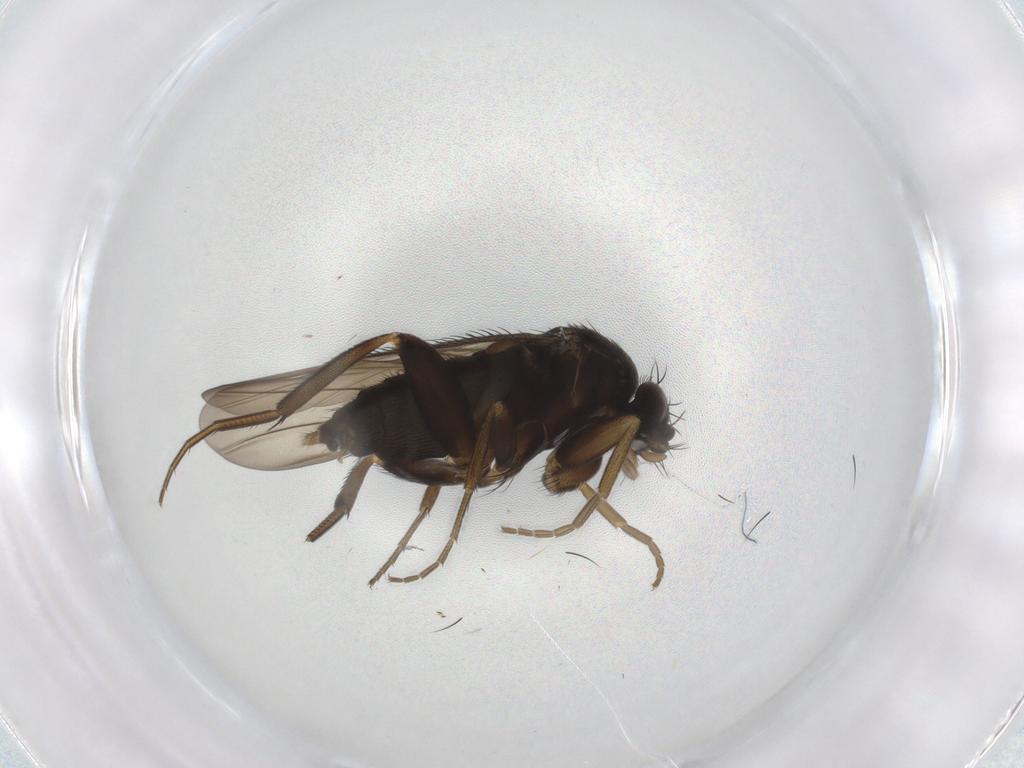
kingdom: Animalia
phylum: Arthropoda
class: Insecta
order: Diptera
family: Phoridae
